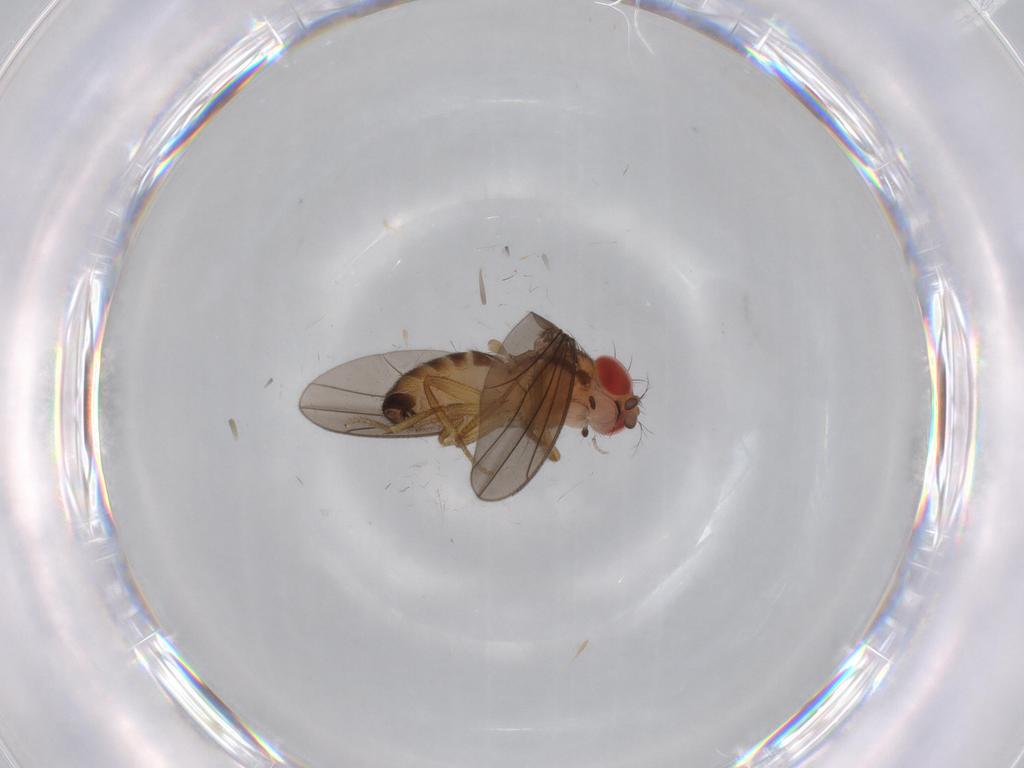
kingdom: Animalia
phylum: Arthropoda
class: Insecta
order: Diptera
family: Drosophilidae
